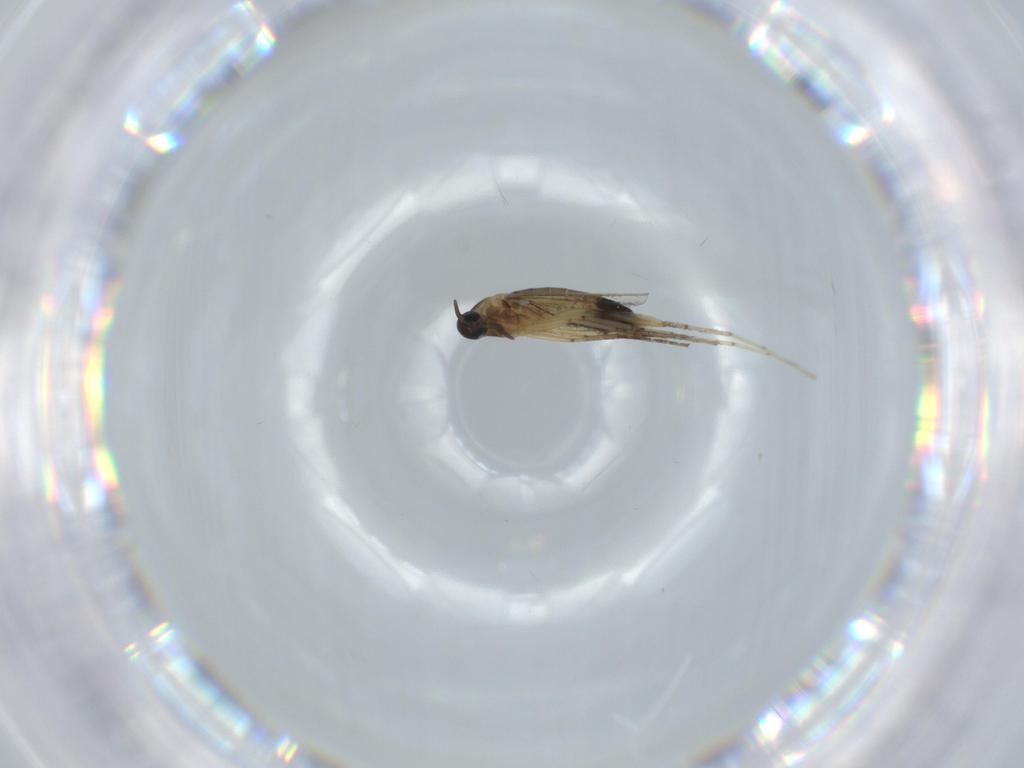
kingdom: Animalia
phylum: Arthropoda
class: Insecta
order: Diptera
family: Cecidomyiidae
